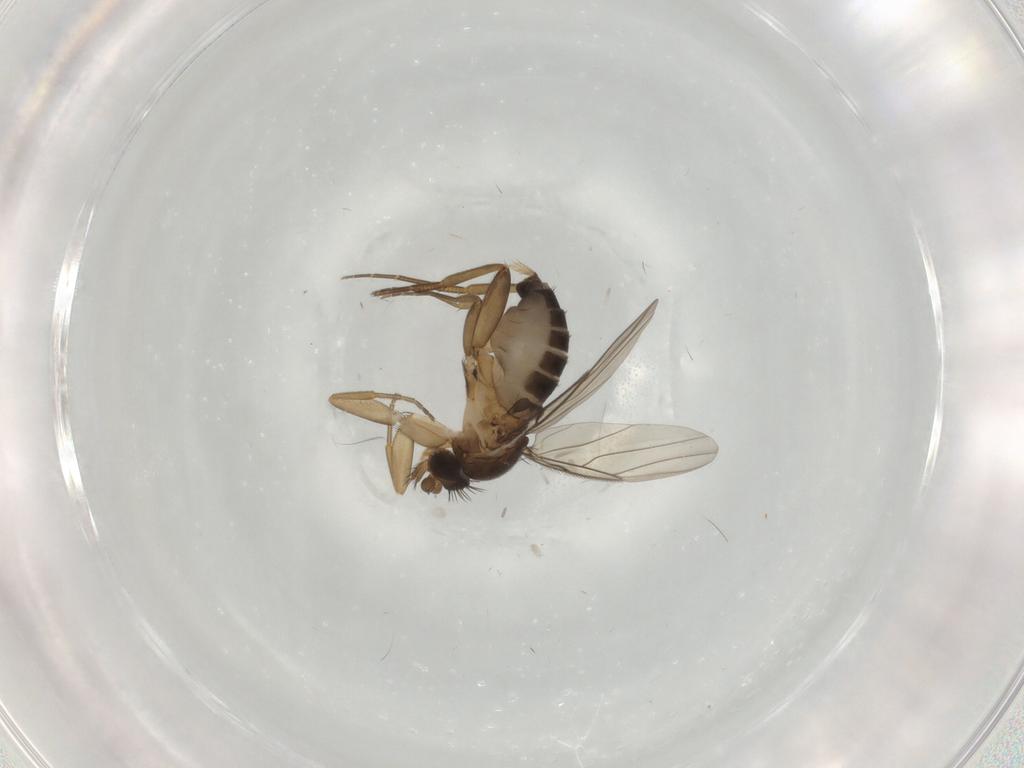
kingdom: Animalia
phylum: Arthropoda
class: Insecta
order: Diptera
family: Phoridae
